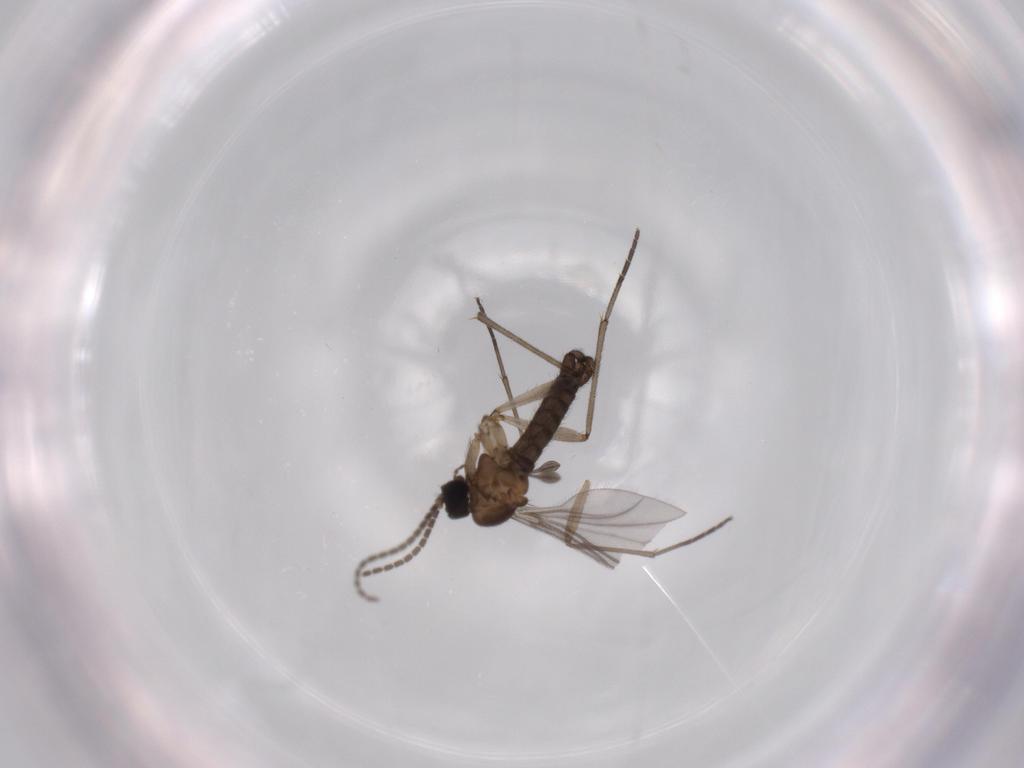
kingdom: Animalia
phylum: Arthropoda
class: Insecta
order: Diptera
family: Sciaridae
